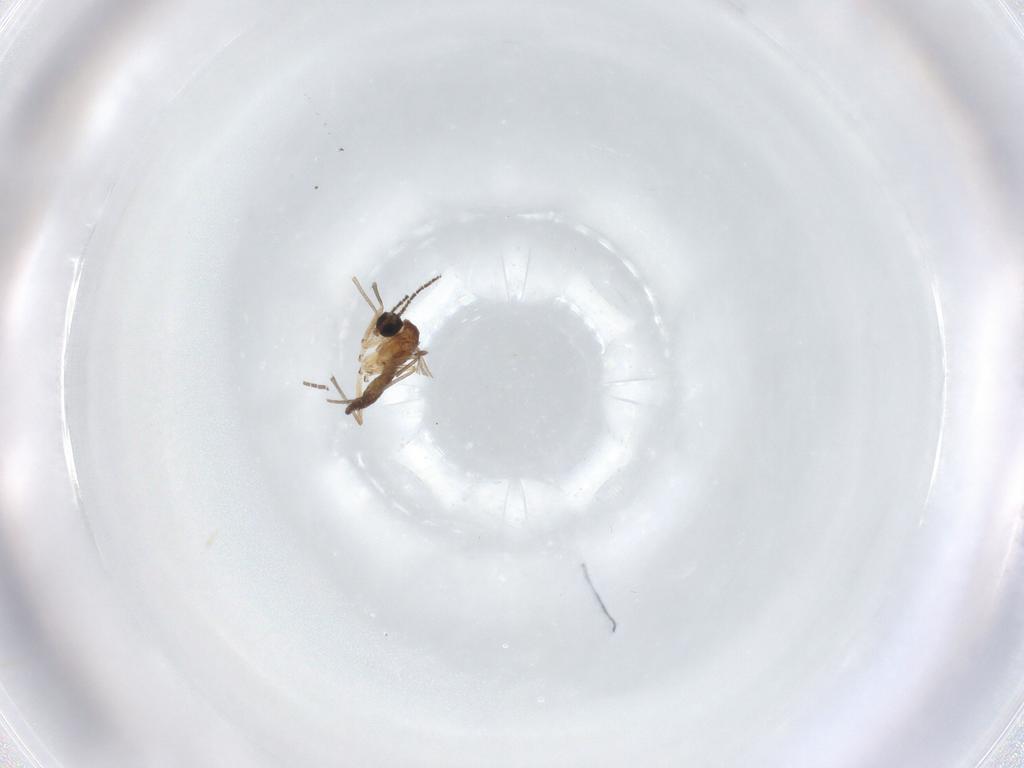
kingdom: Animalia
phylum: Arthropoda
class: Insecta
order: Diptera
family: Sciaridae
